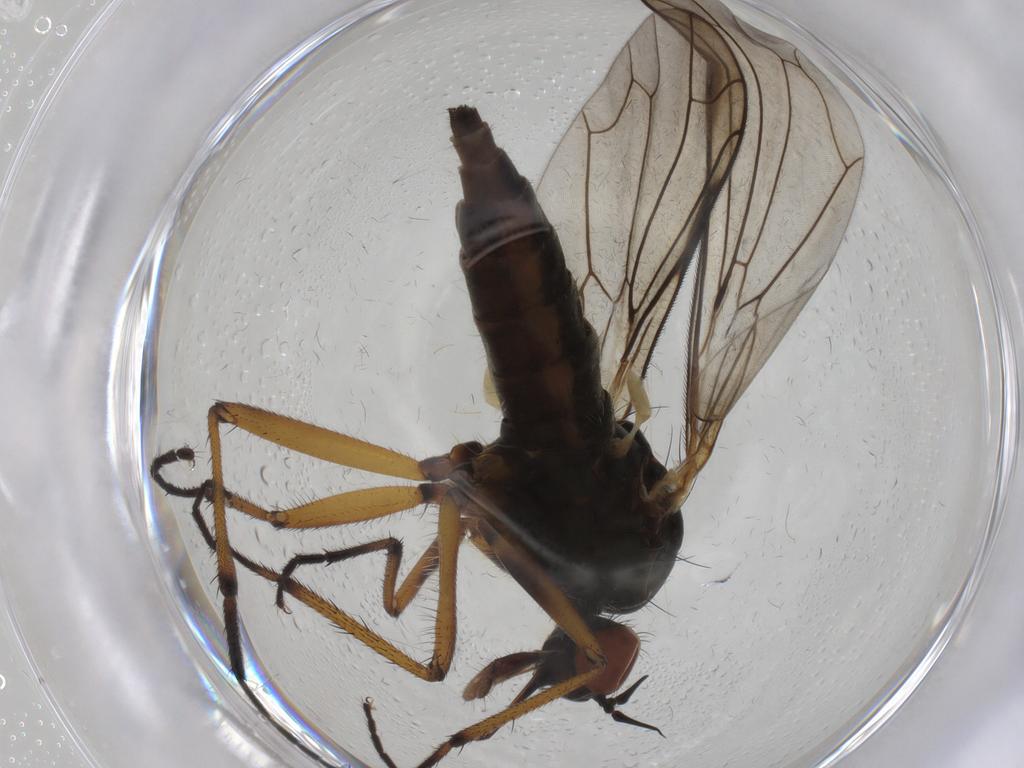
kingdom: Animalia
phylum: Arthropoda
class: Insecta
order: Diptera
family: Empididae
